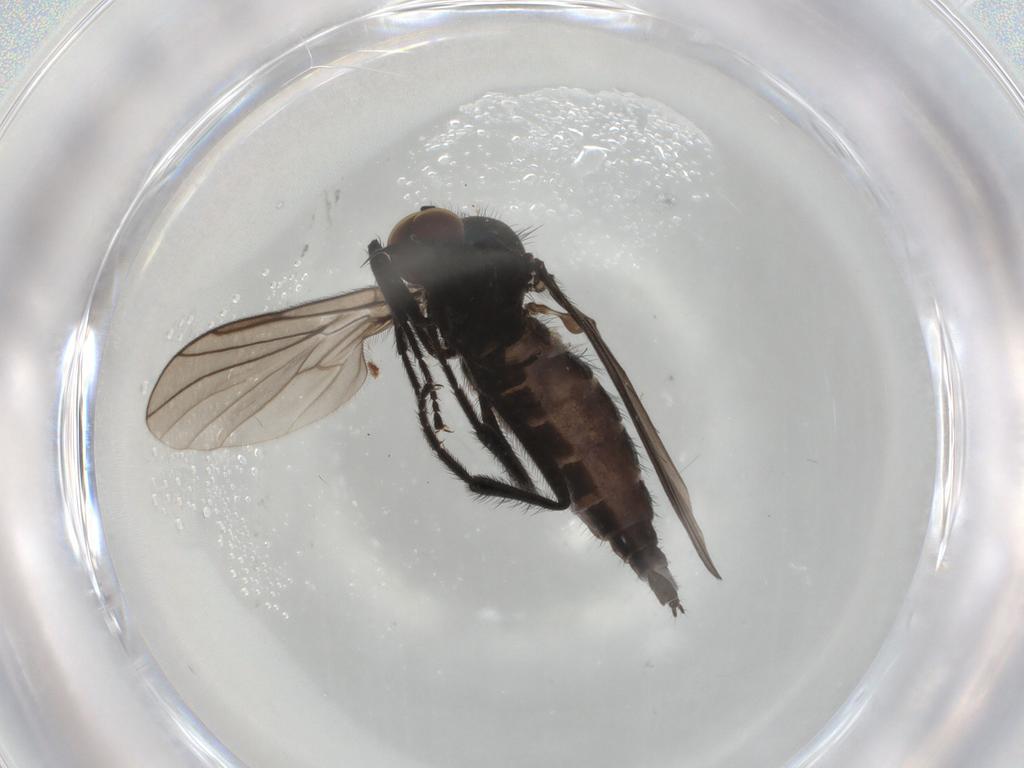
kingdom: Animalia
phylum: Arthropoda
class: Insecta
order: Diptera
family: Hybotidae
